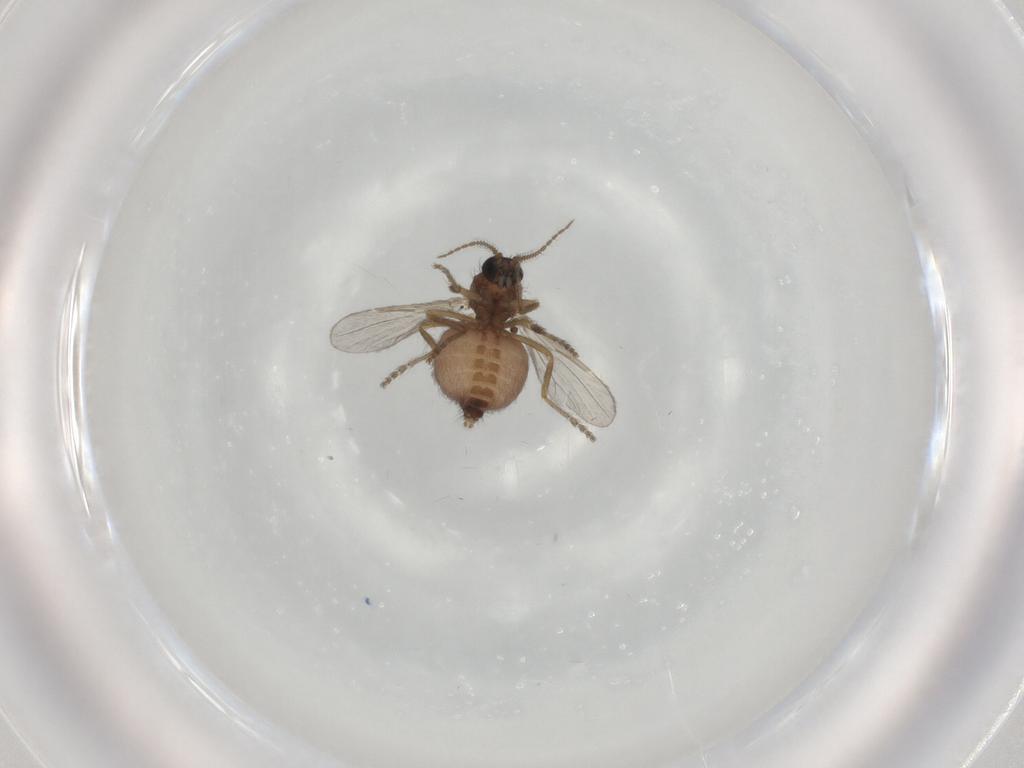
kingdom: Animalia
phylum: Arthropoda
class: Insecta
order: Diptera
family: Ceratopogonidae
